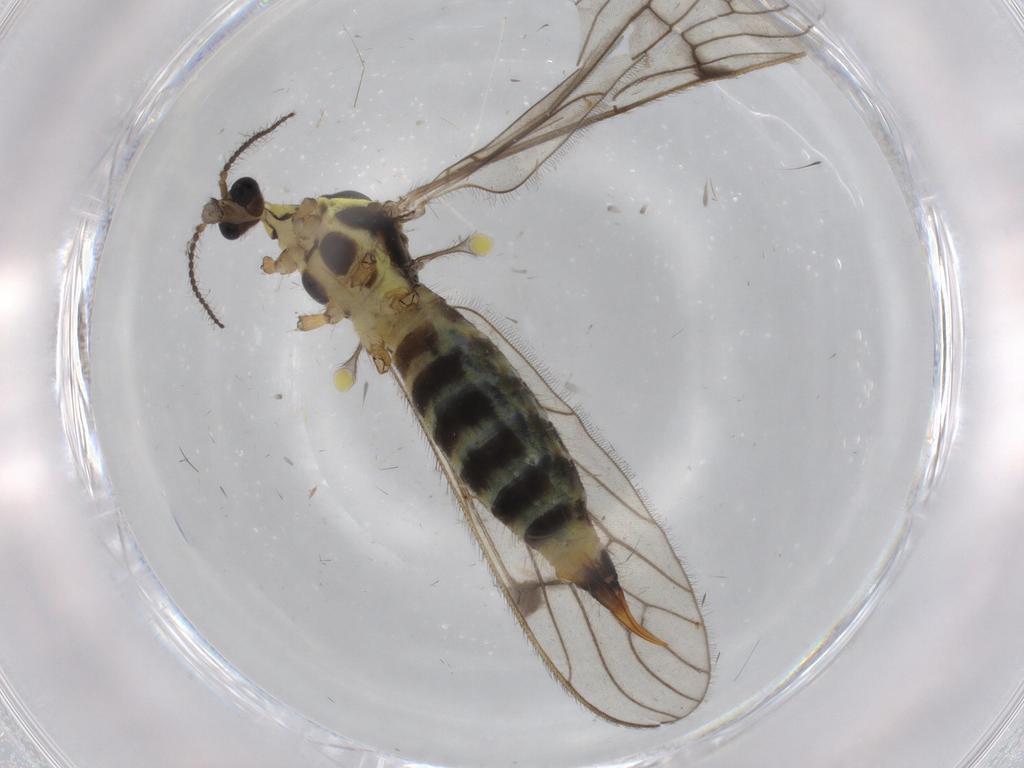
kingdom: Animalia
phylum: Arthropoda
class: Insecta
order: Diptera
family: Limoniidae
